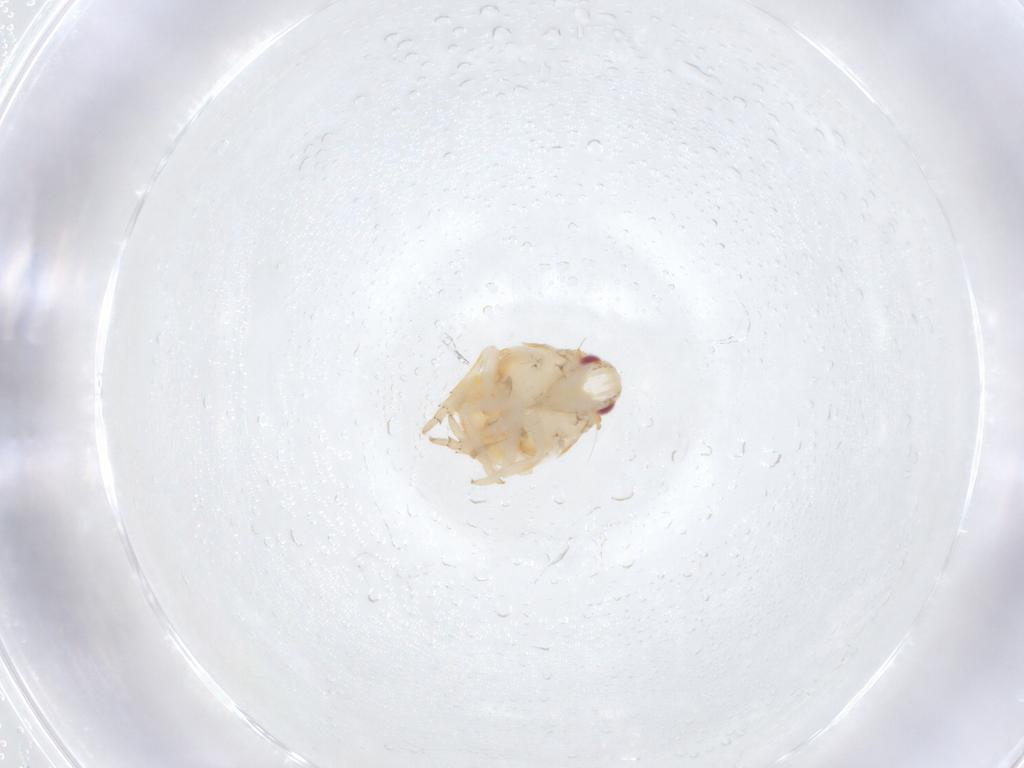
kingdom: Animalia
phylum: Arthropoda
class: Insecta
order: Hemiptera
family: Flatidae
